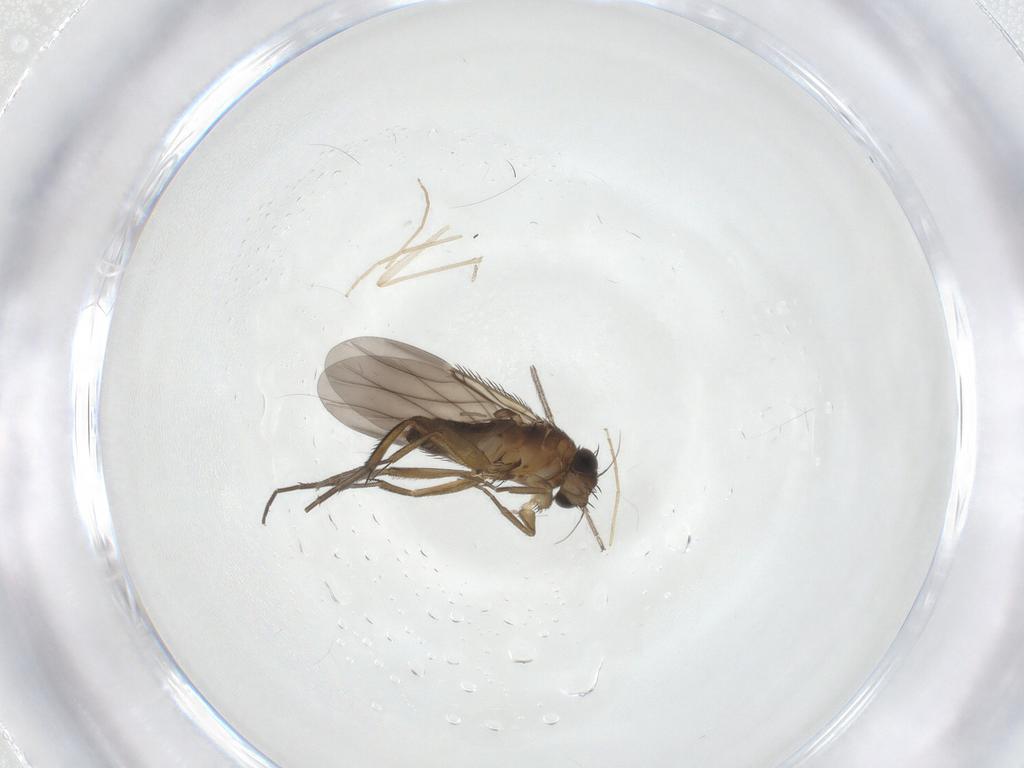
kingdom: Animalia
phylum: Arthropoda
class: Insecta
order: Diptera
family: Phoridae
